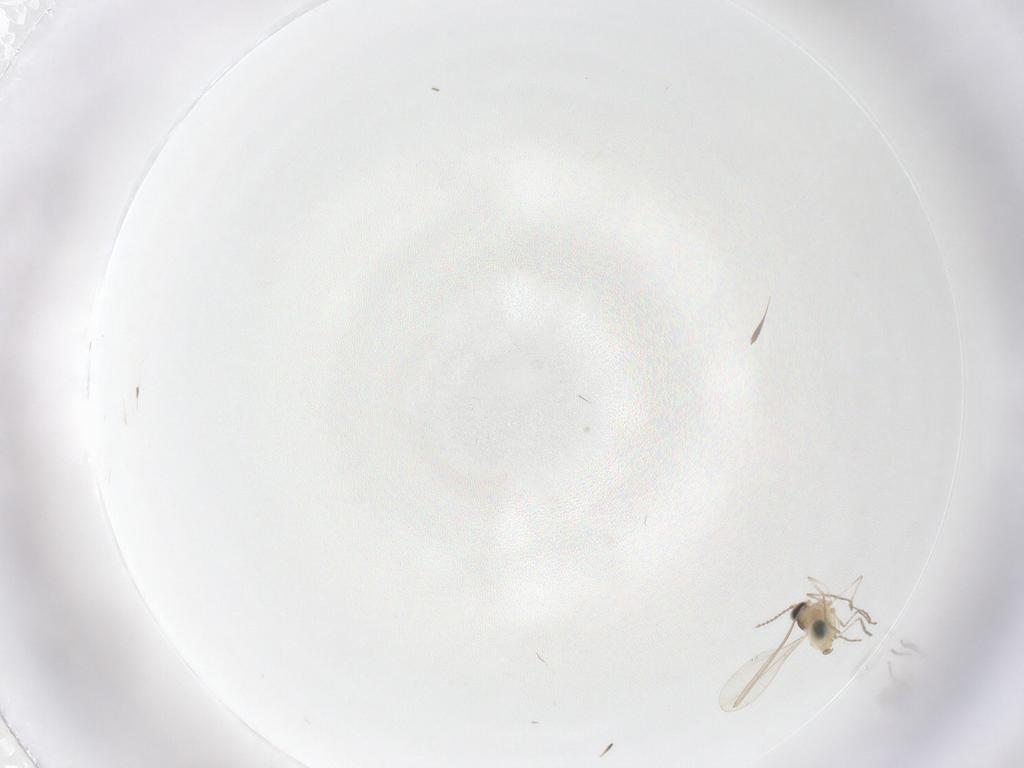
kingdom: Animalia
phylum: Arthropoda
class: Insecta
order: Diptera
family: Cecidomyiidae
